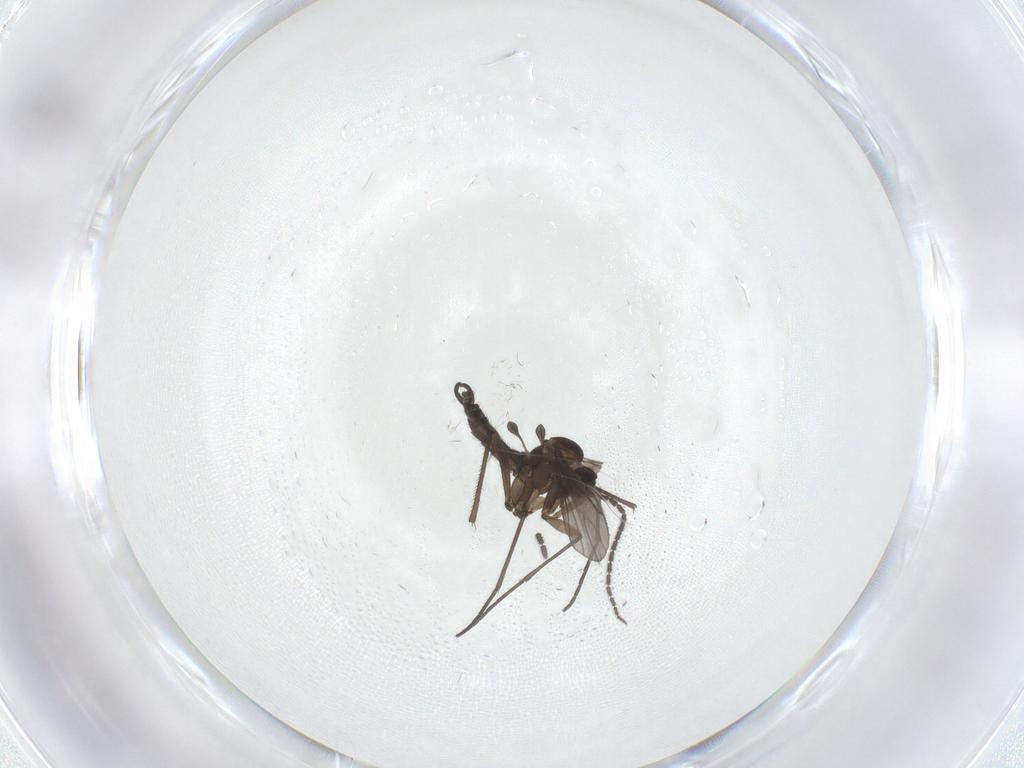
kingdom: Animalia
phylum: Arthropoda
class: Insecta
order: Diptera
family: Sciaridae
